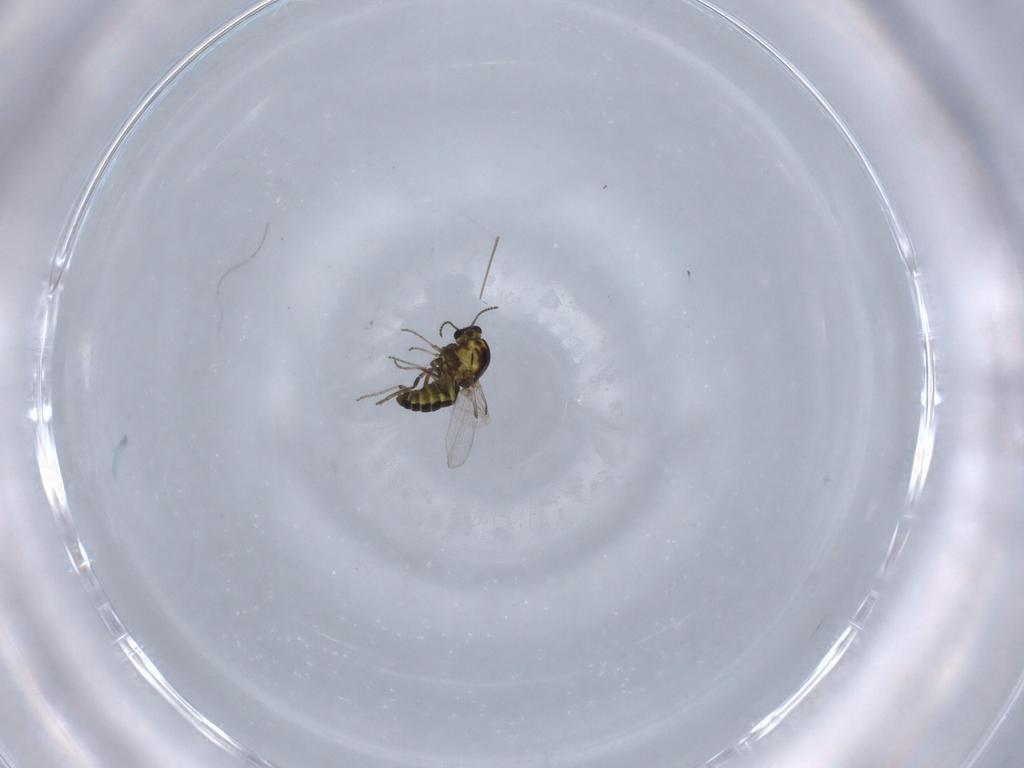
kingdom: Animalia
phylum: Arthropoda
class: Insecta
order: Diptera
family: Ceratopogonidae
